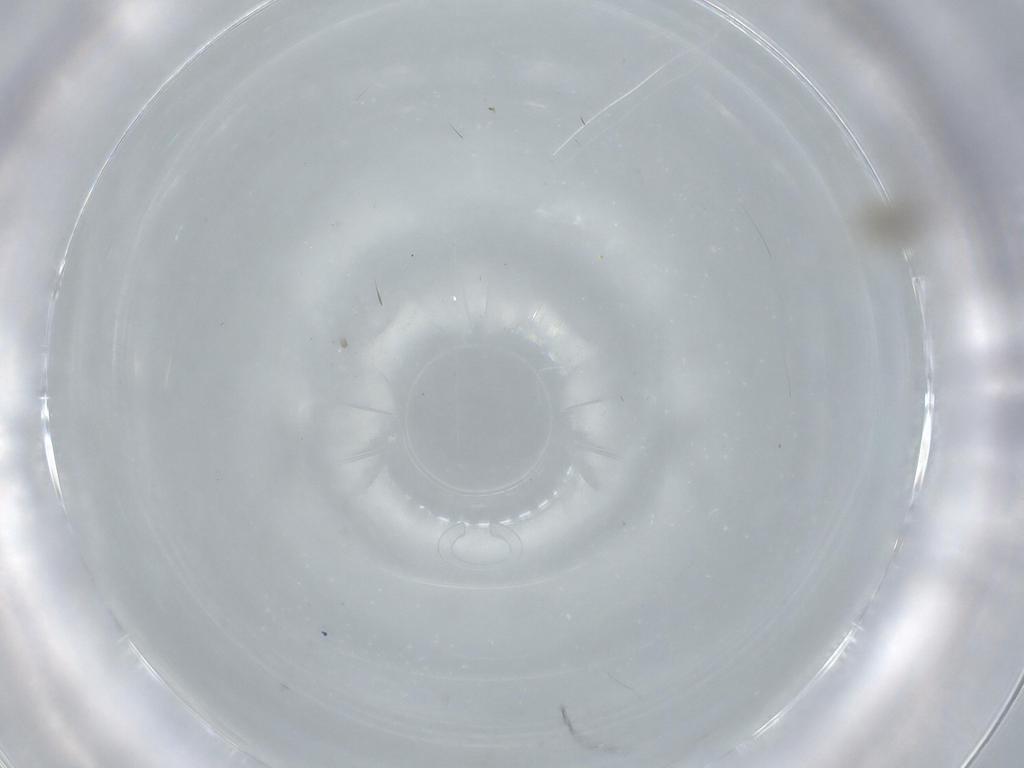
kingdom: Animalia
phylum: Arthropoda
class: Insecta
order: Diptera
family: Cecidomyiidae
